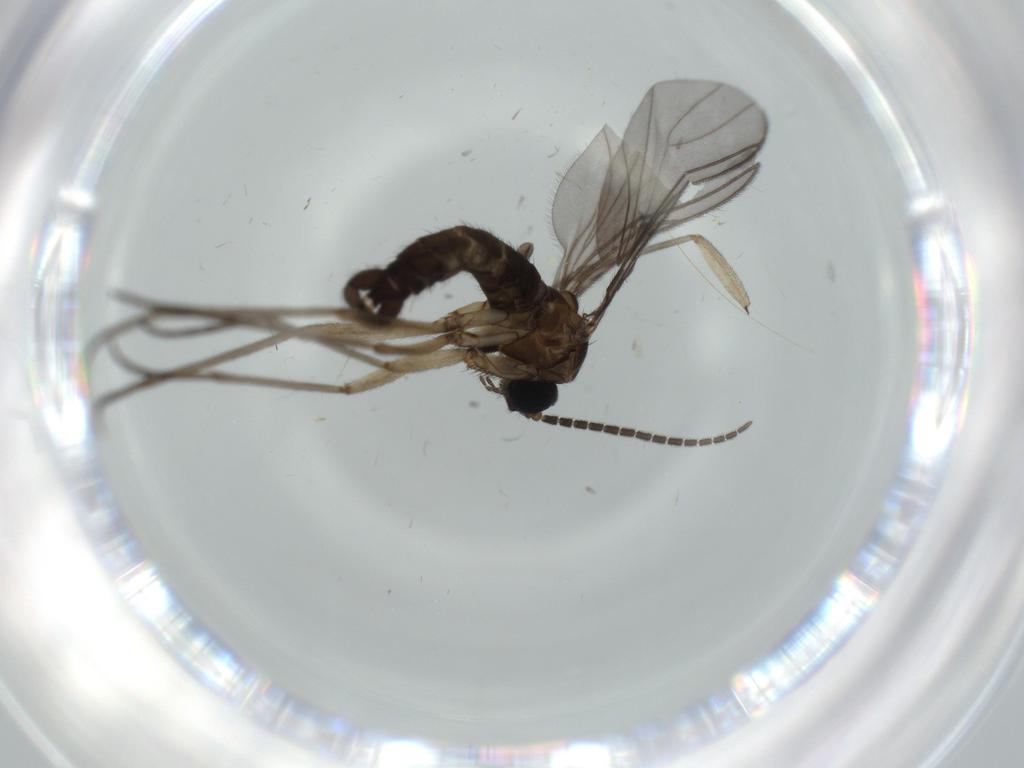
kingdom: Animalia
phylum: Arthropoda
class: Insecta
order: Diptera
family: Sciaridae
